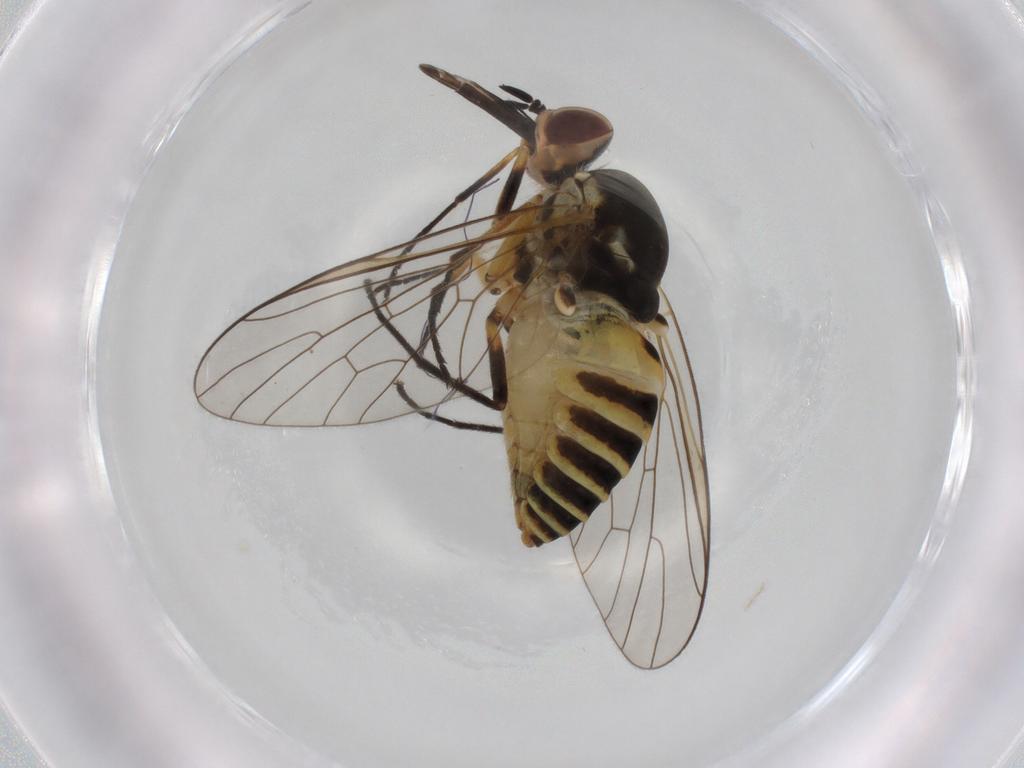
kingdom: Animalia
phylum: Arthropoda
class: Insecta
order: Diptera
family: Bombyliidae
